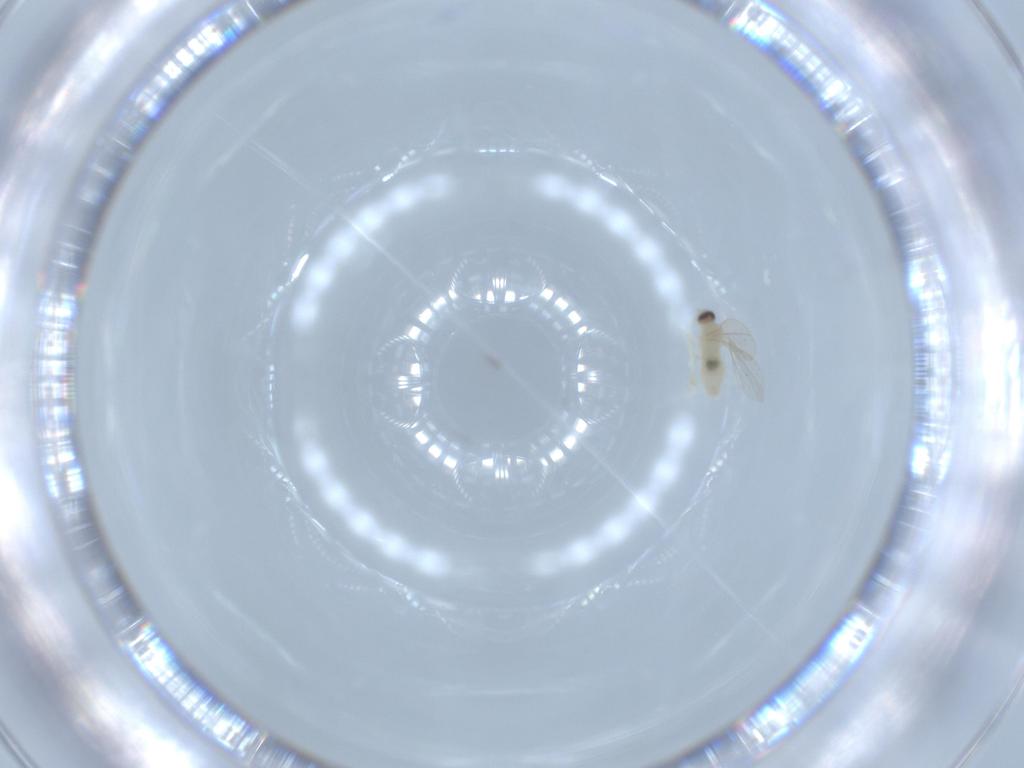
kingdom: Animalia
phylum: Arthropoda
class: Insecta
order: Diptera
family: Cecidomyiidae
